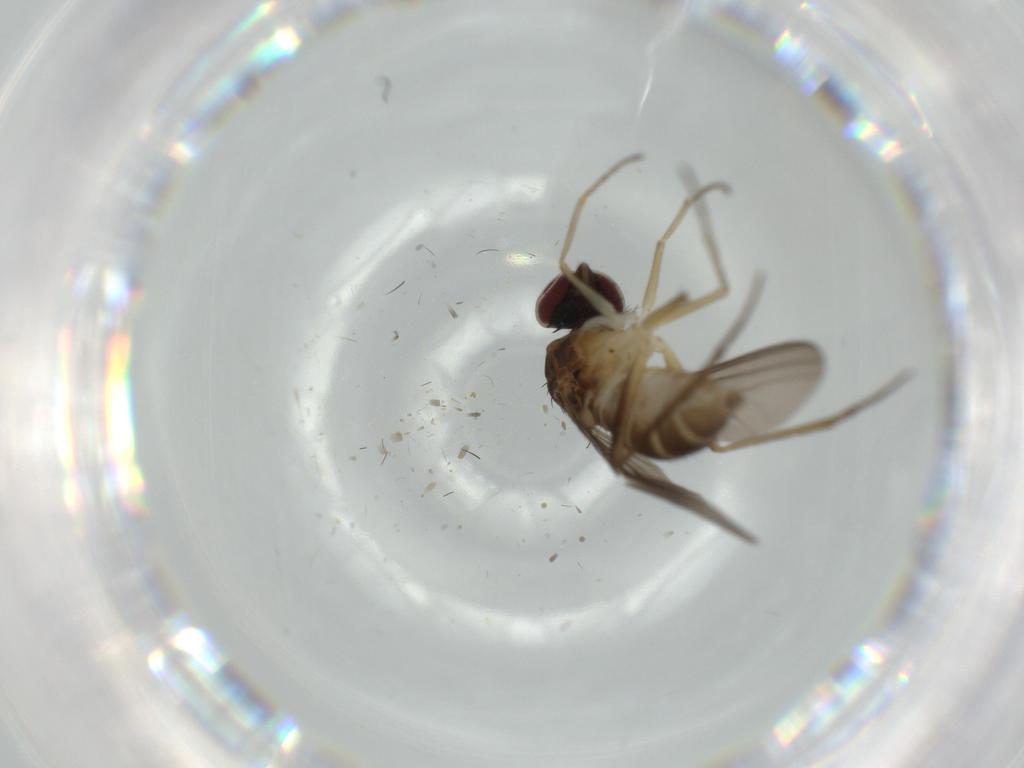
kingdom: Animalia
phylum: Arthropoda
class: Insecta
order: Diptera
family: Dolichopodidae
